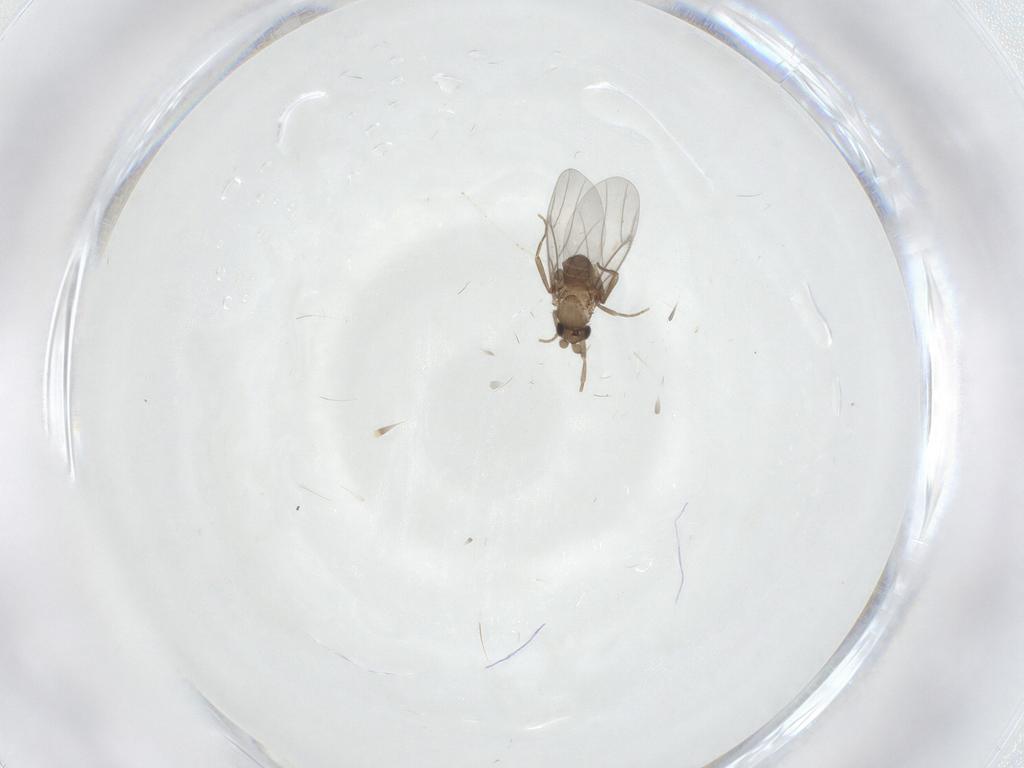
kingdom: Animalia
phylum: Arthropoda
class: Insecta
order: Diptera
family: Cecidomyiidae
